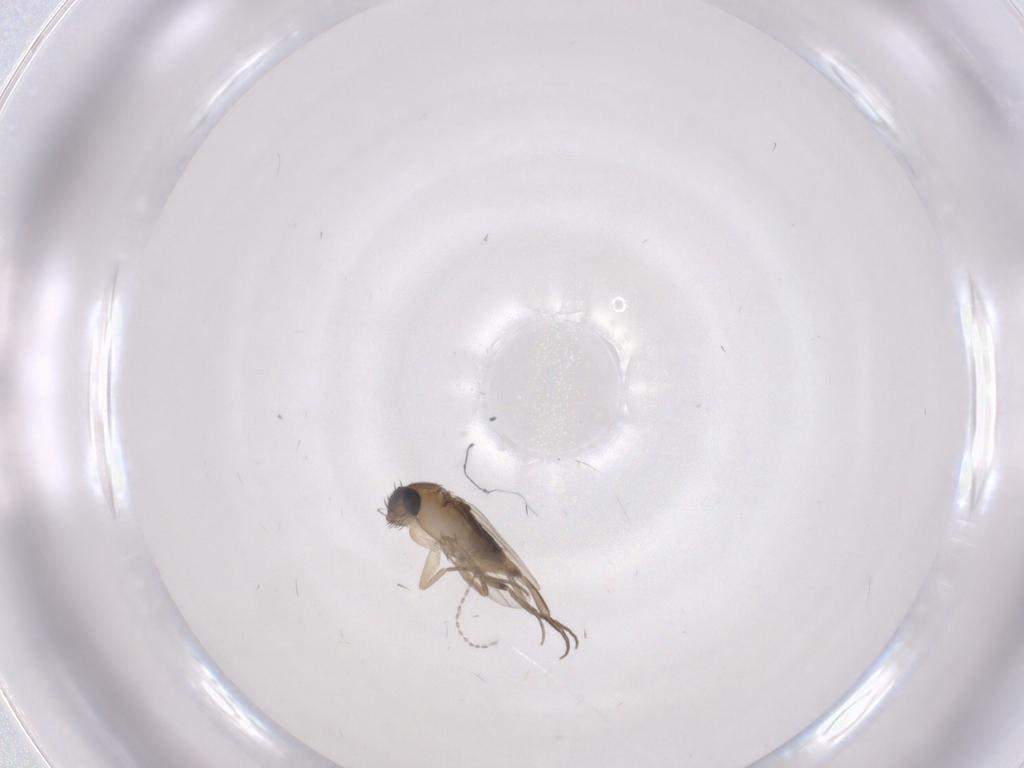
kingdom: Animalia
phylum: Arthropoda
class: Insecta
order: Diptera
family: Phoridae
